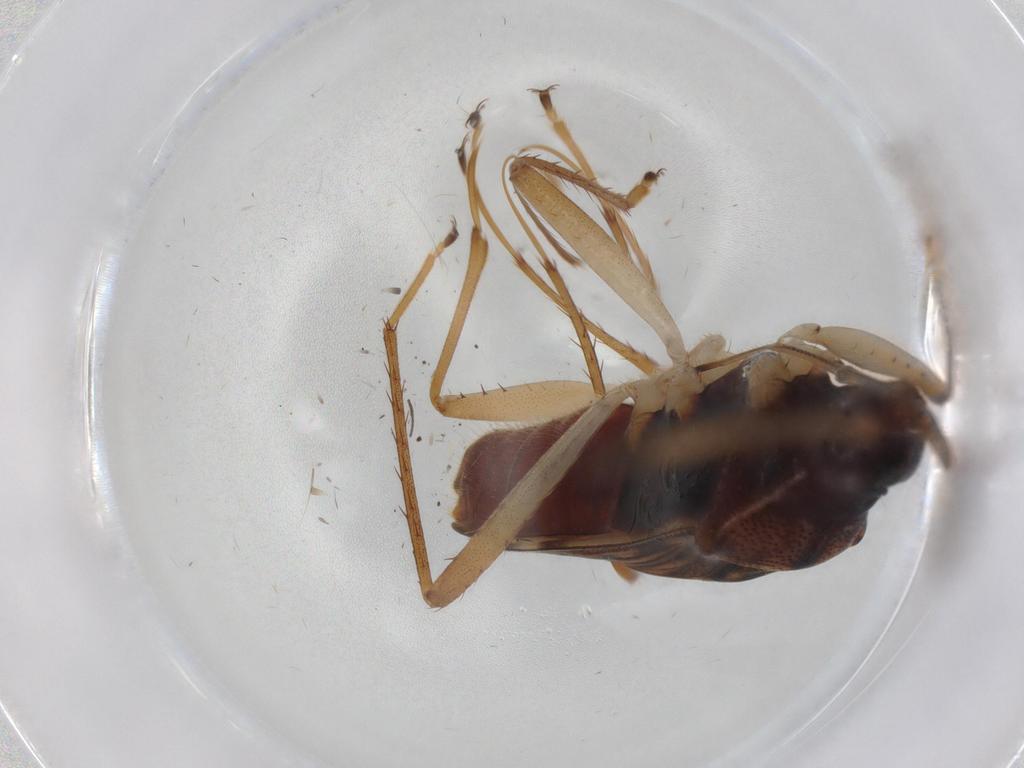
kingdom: Animalia
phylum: Arthropoda
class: Insecta
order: Hemiptera
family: Rhyparochromidae
